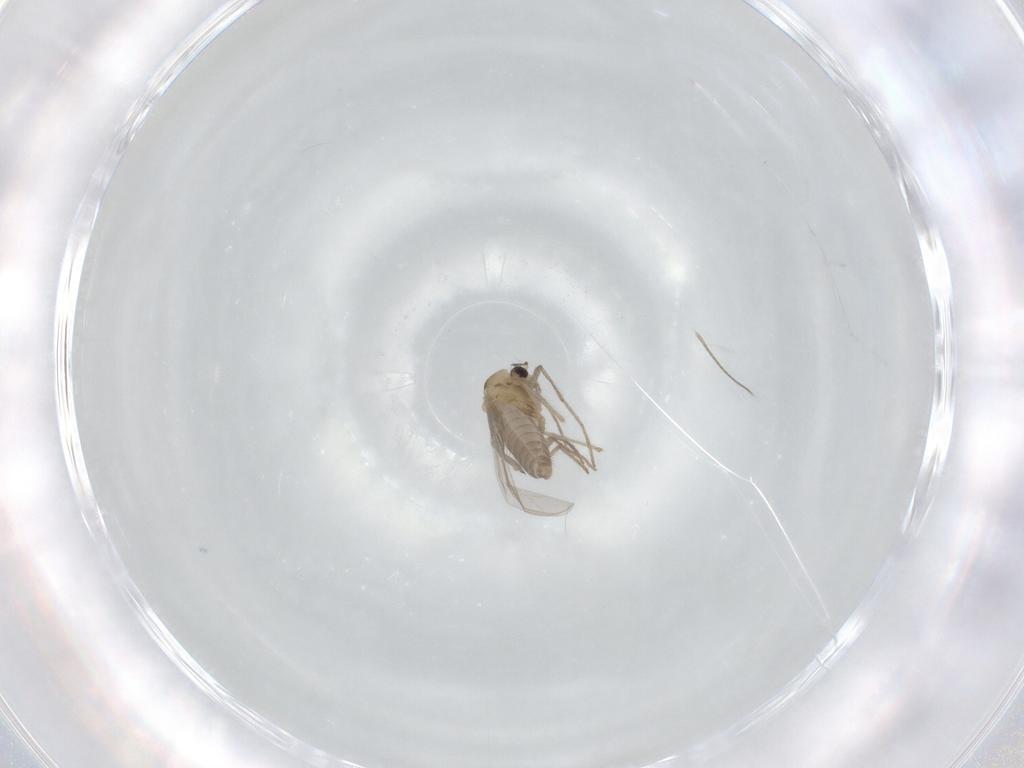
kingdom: Animalia
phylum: Arthropoda
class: Insecta
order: Diptera
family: Chironomidae
